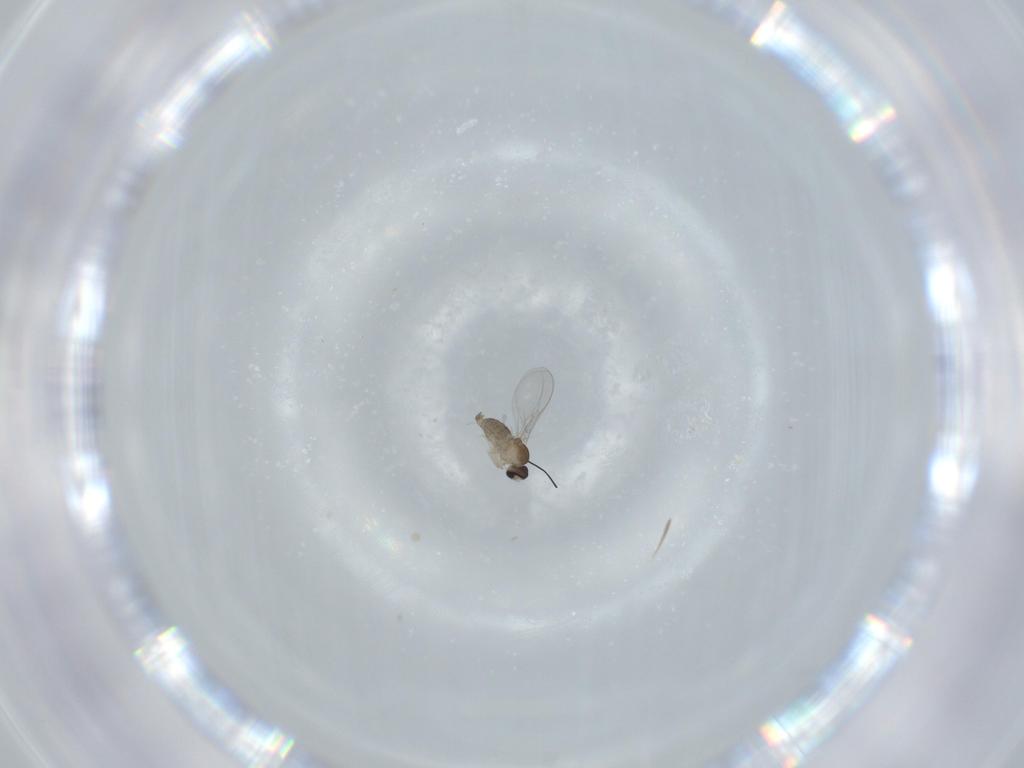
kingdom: Animalia
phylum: Arthropoda
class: Insecta
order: Diptera
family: Cecidomyiidae
